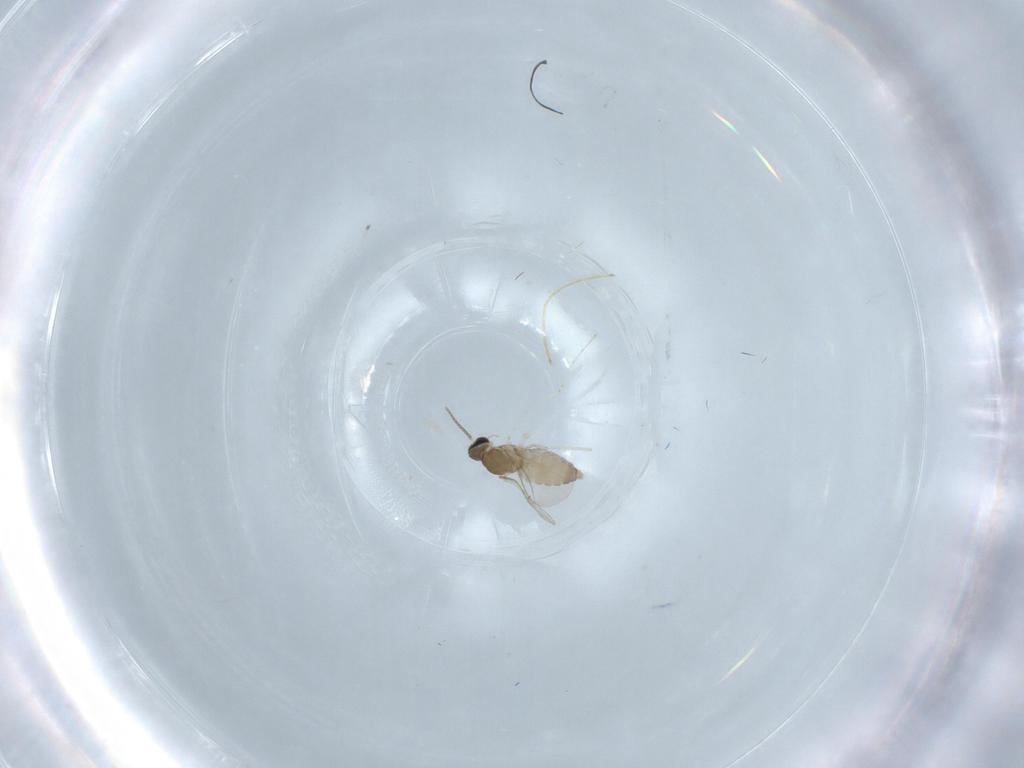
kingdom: Animalia
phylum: Arthropoda
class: Insecta
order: Diptera
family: Cecidomyiidae
